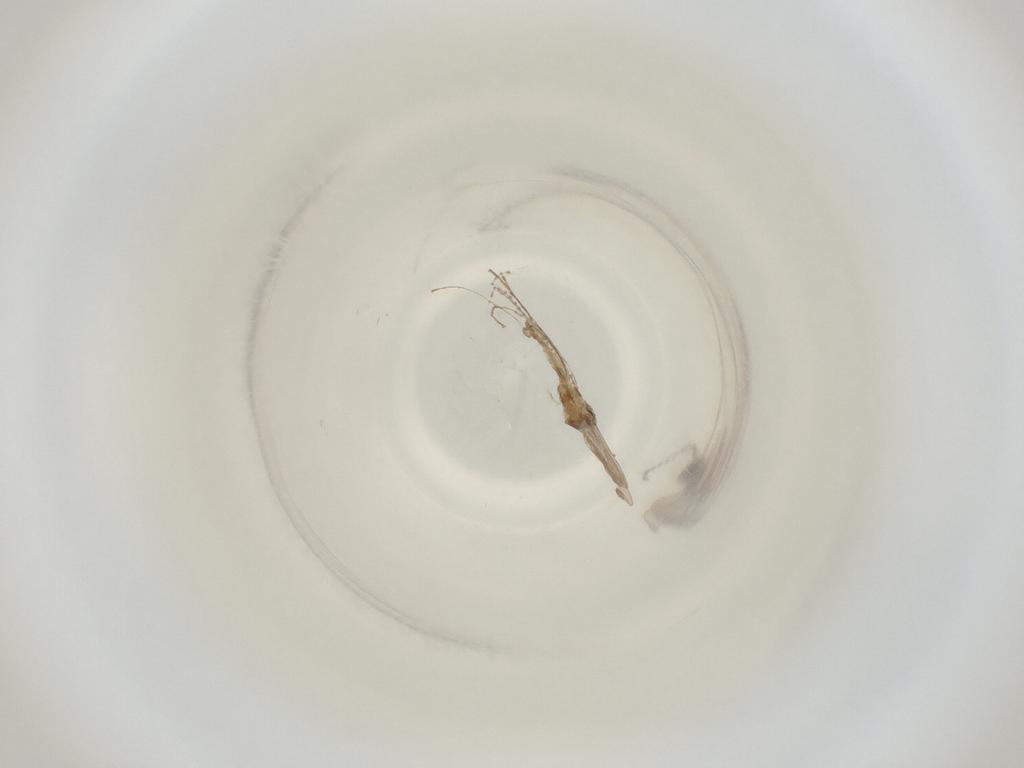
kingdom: Animalia
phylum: Arthropoda
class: Insecta
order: Diptera
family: Cecidomyiidae
